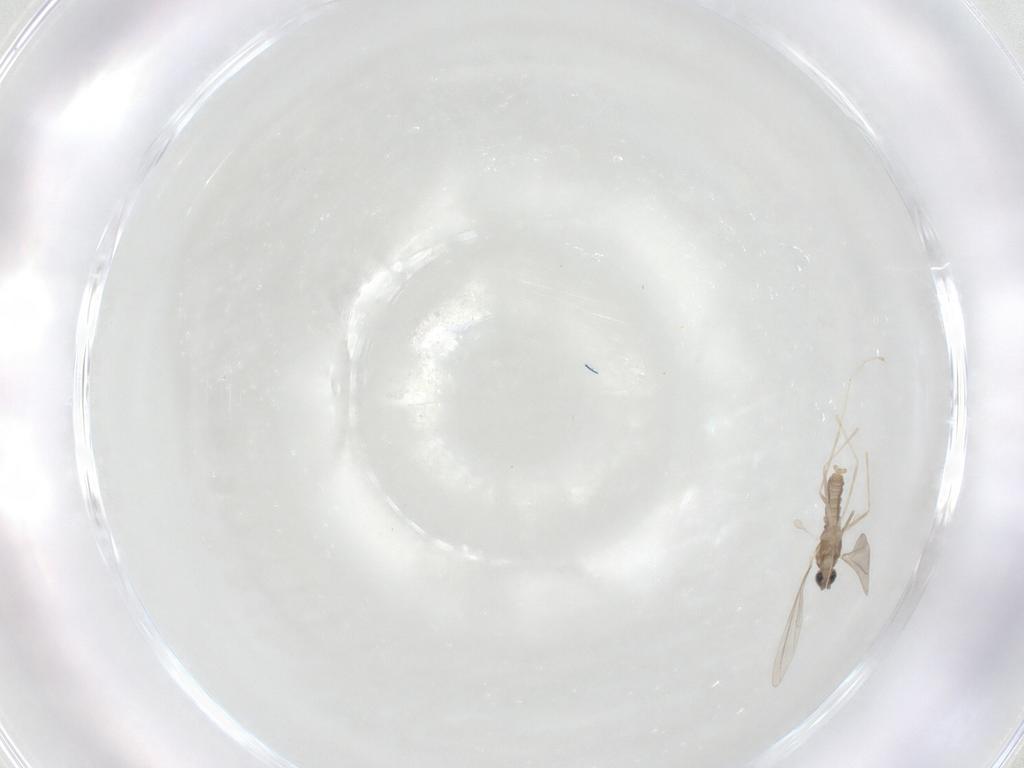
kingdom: Animalia
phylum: Arthropoda
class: Insecta
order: Diptera
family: Cecidomyiidae
